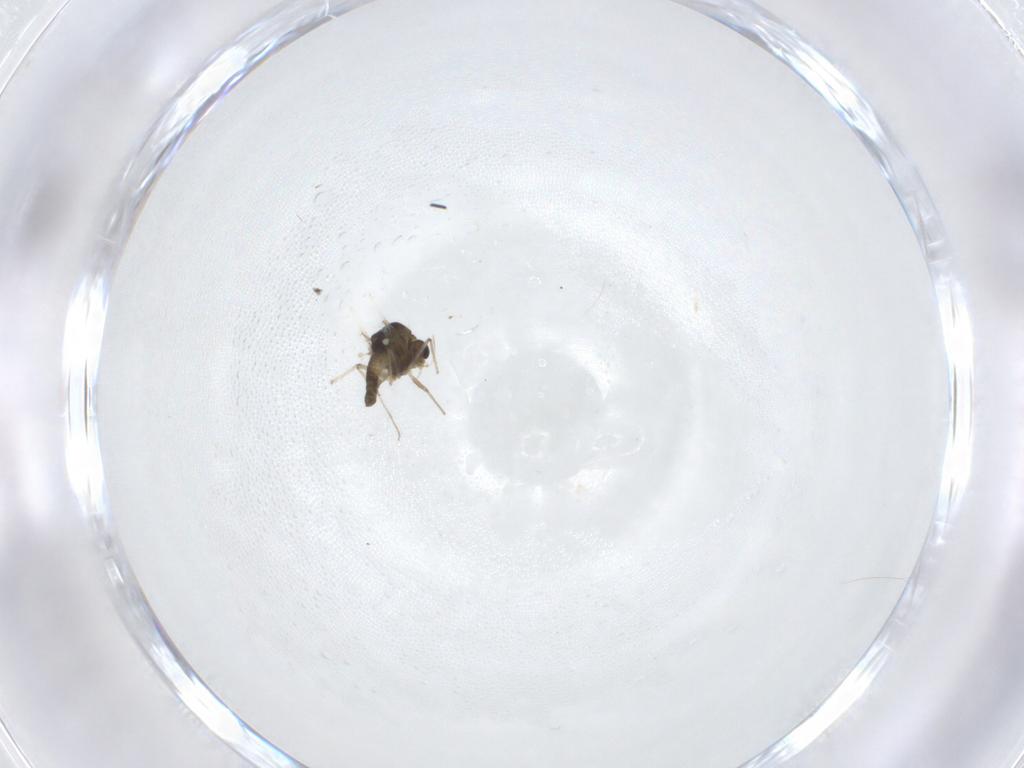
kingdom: Animalia
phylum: Arthropoda
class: Insecta
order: Diptera
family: Chironomidae
